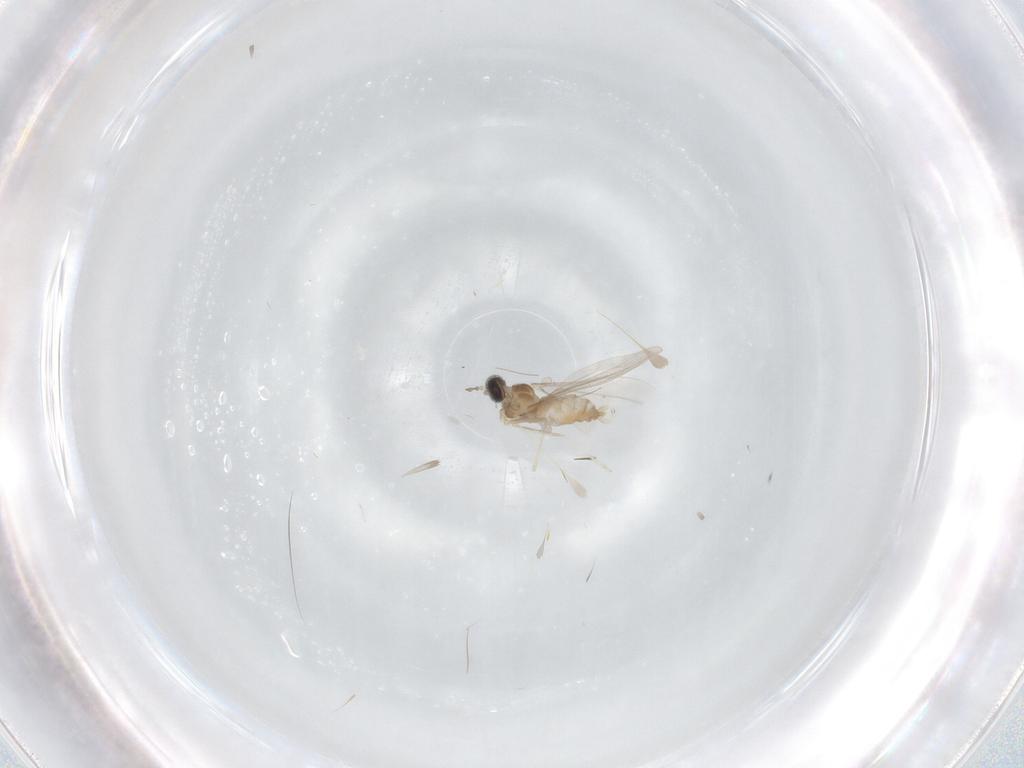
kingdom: Animalia
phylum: Arthropoda
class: Insecta
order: Diptera
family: Cecidomyiidae
